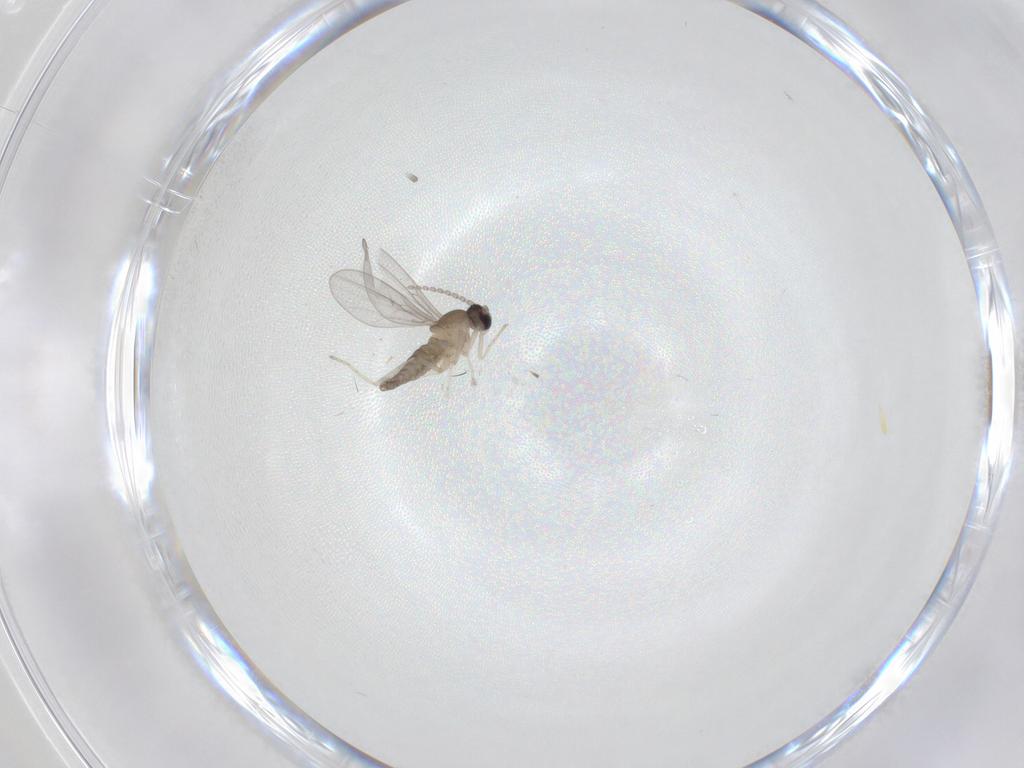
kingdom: Animalia
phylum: Arthropoda
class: Insecta
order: Diptera
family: Cecidomyiidae
